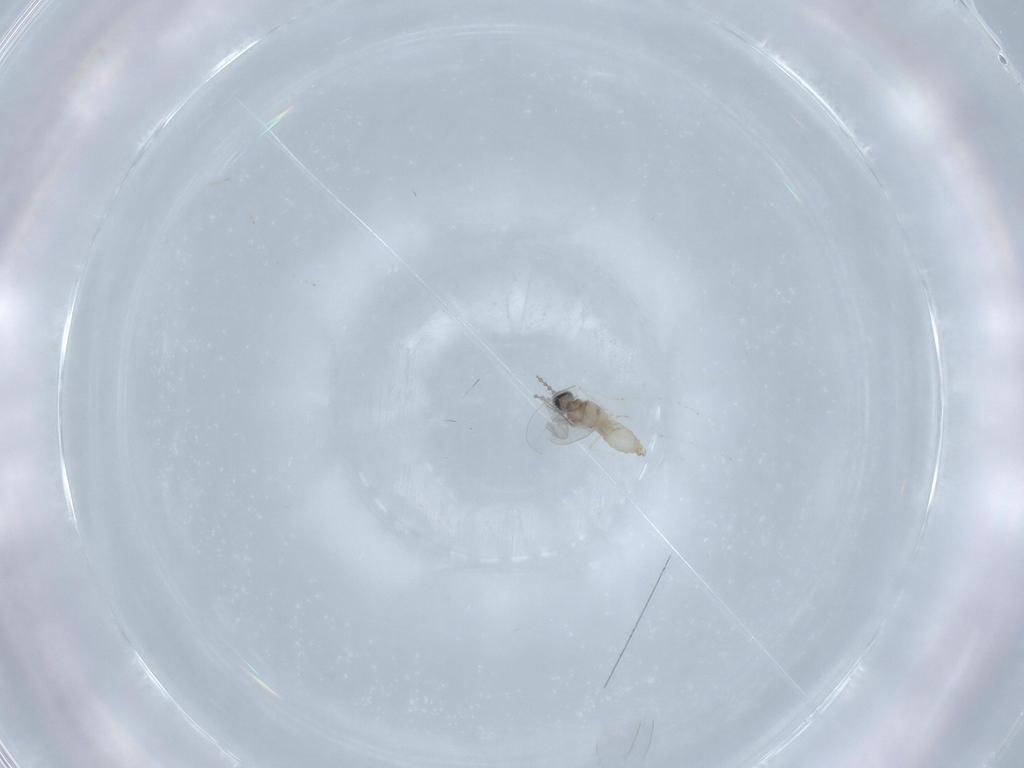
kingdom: Animalia
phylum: Arthropoda
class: Insecta
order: Diptera
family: Cecidomyiidae
